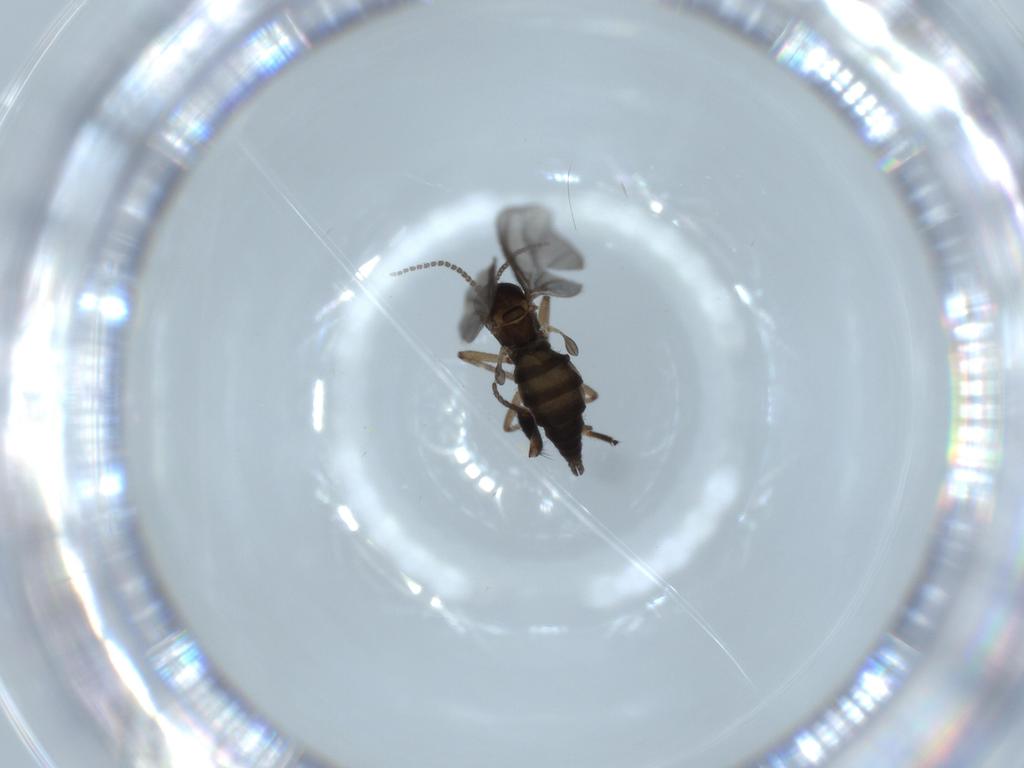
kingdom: Animalia
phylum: Arthropoda
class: Insecta
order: Diptera
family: Sciaridae
